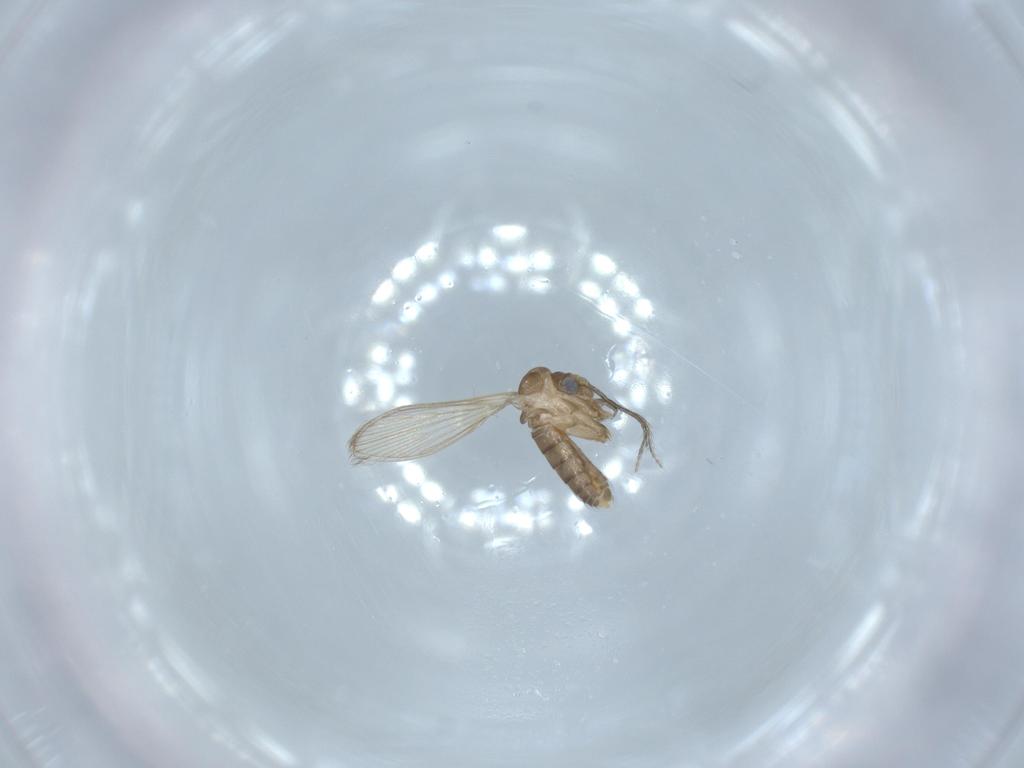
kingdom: Animalia
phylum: Arthropoda
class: Insecta
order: Diptera
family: Psychodidae
